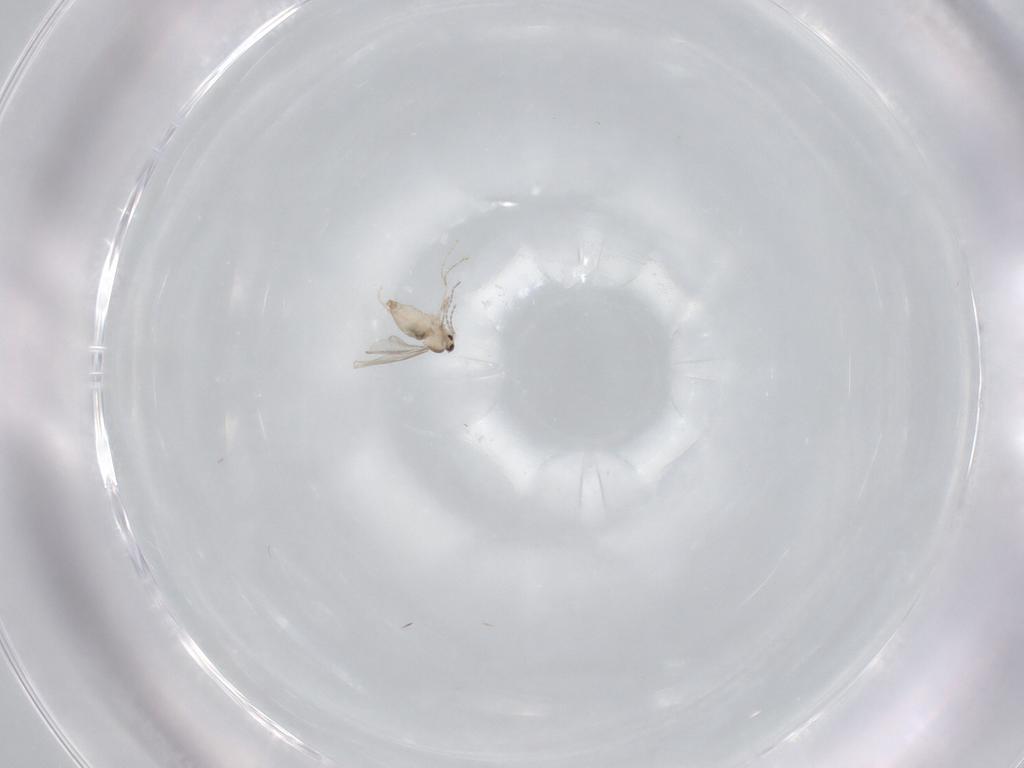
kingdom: Animalia
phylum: Arthropoda
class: Insecta
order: Diptera
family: Cecidomyiidae
